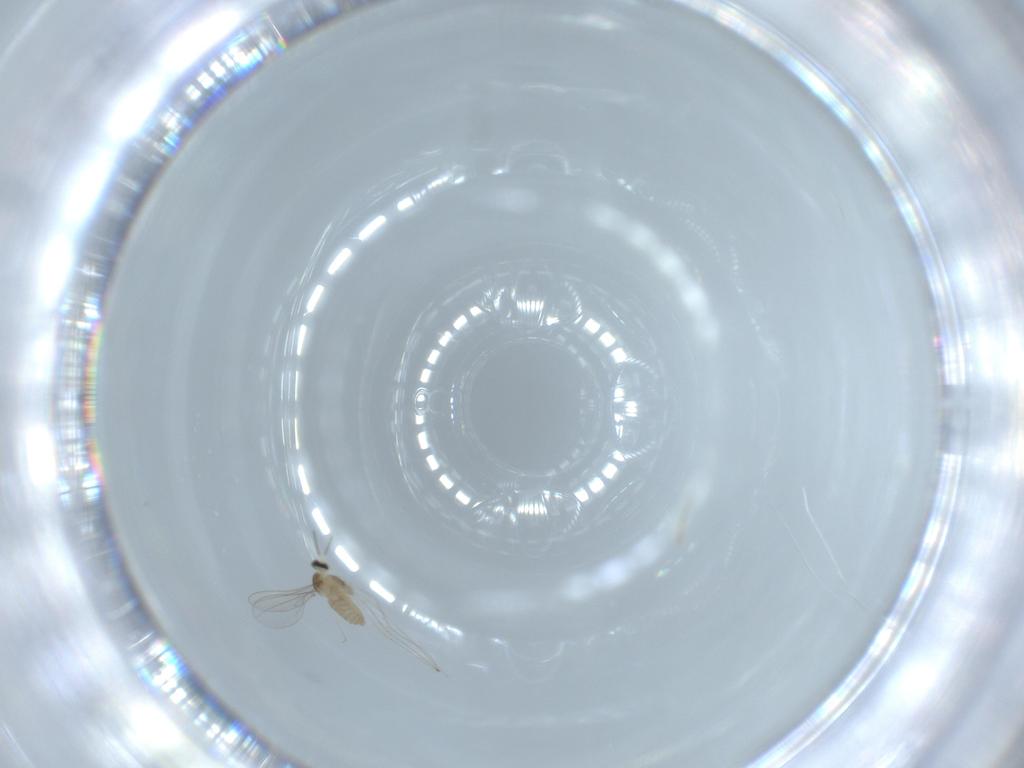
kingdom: Animalia
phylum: Arthropoda
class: Insecta
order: Diptera
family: Cecidomyiidae
